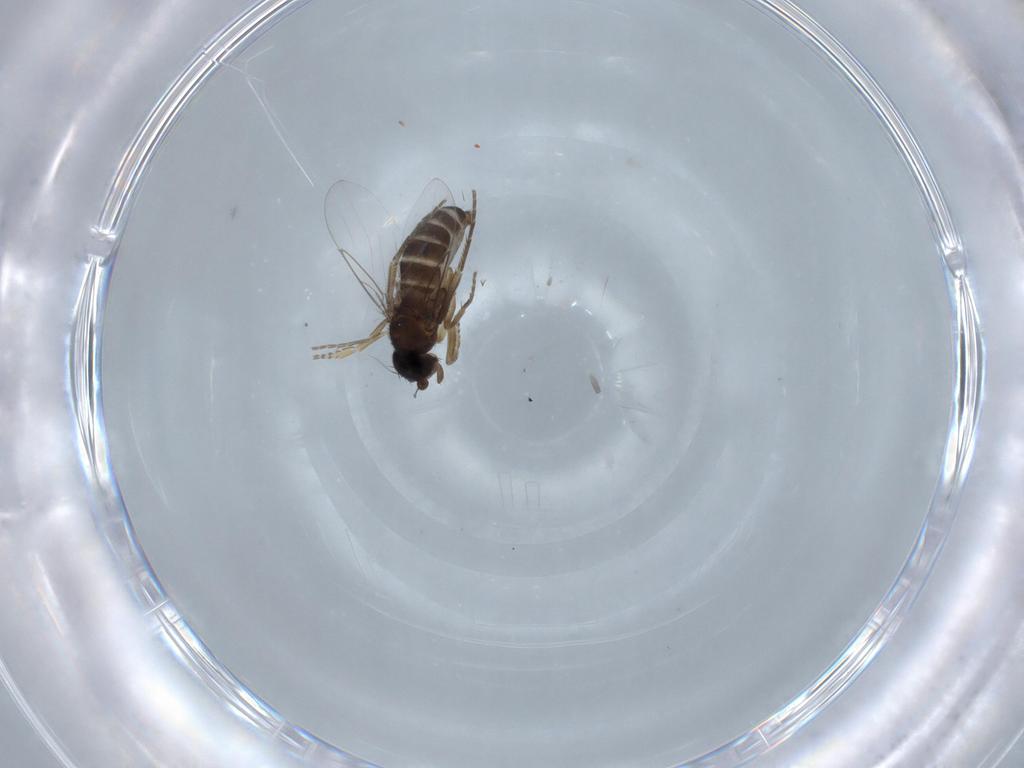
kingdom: Animalia
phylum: Arthropoda
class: Insecta
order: Diptera
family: Phoridae
